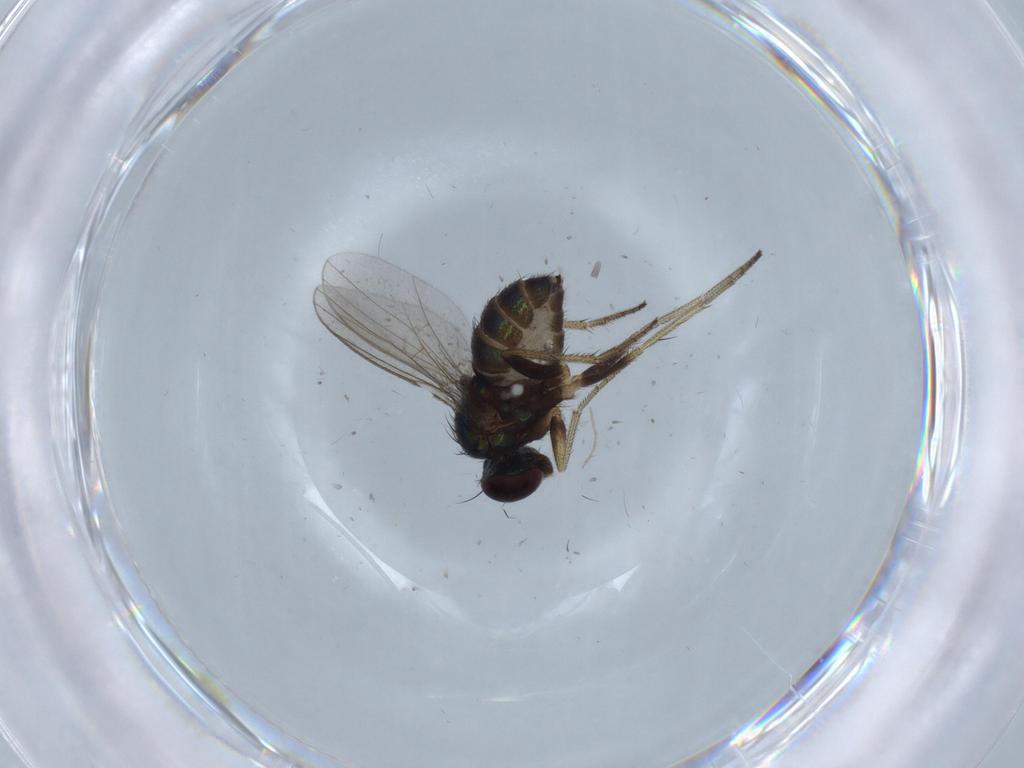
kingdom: Animalia
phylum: Arthropoda
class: Insecta
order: Diptera
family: Dolichopodidae
